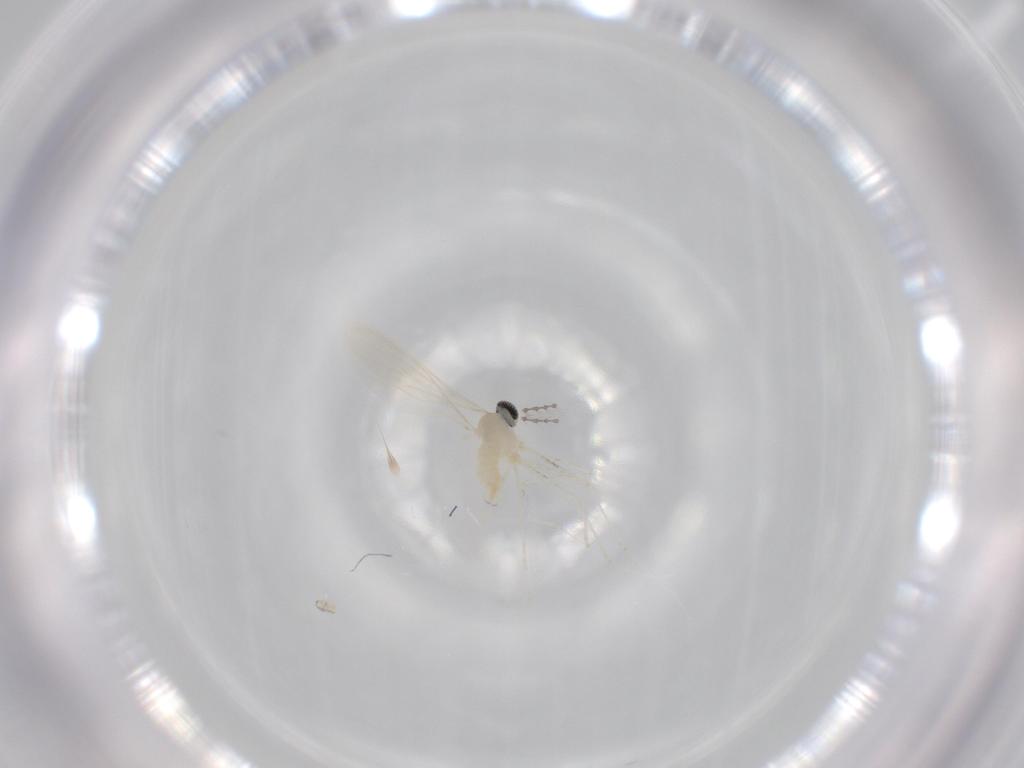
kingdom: Animalia
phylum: Arthropoda
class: Insecta
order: Diptera
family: Cecidomyiidae
